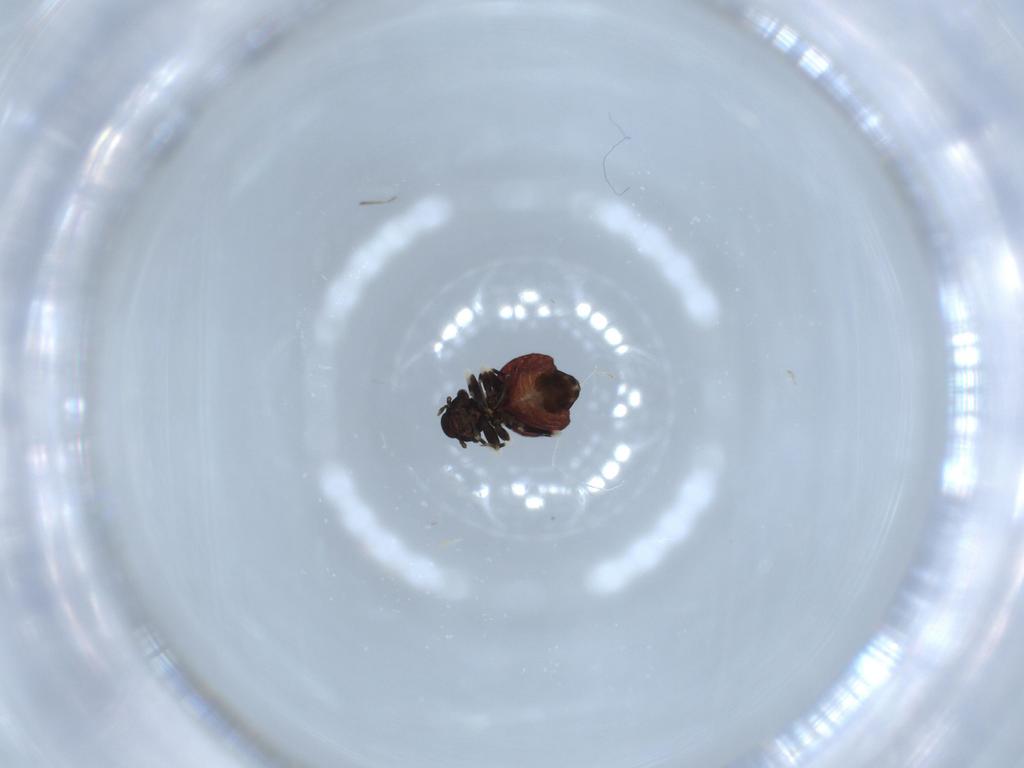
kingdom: Animalia
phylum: Arthropoda
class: Insecta
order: Psocodea
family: Lepidopsocidae
